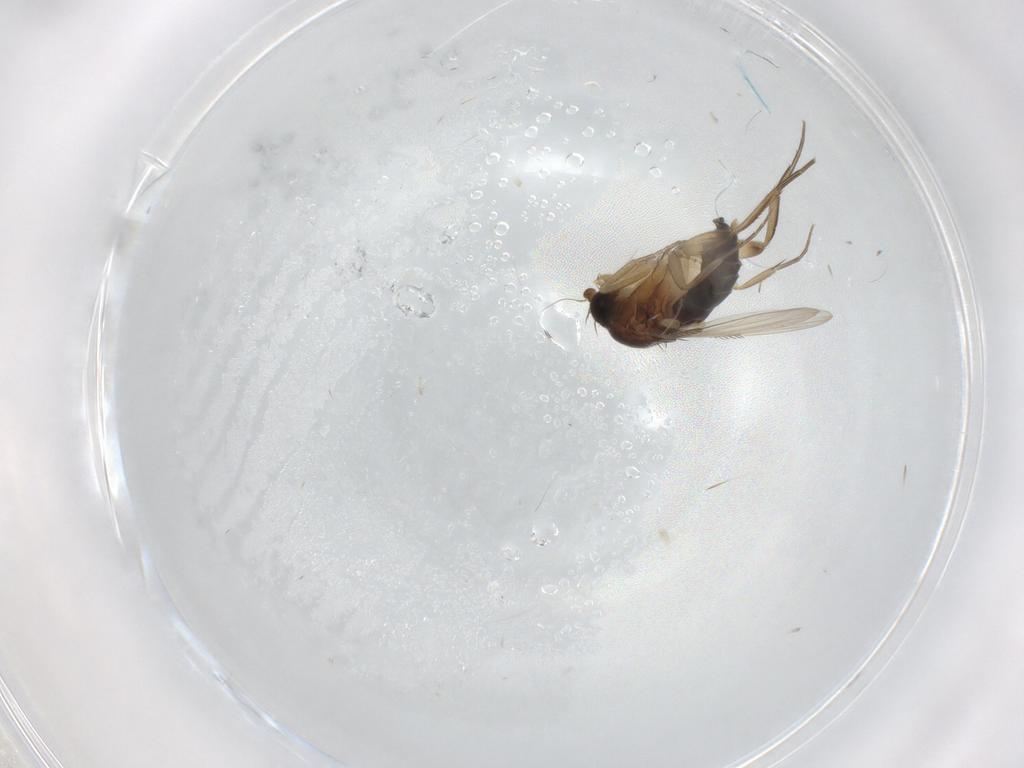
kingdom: Animalia
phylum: Arthropoda
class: Insecta
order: Diptera
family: Phoridae
